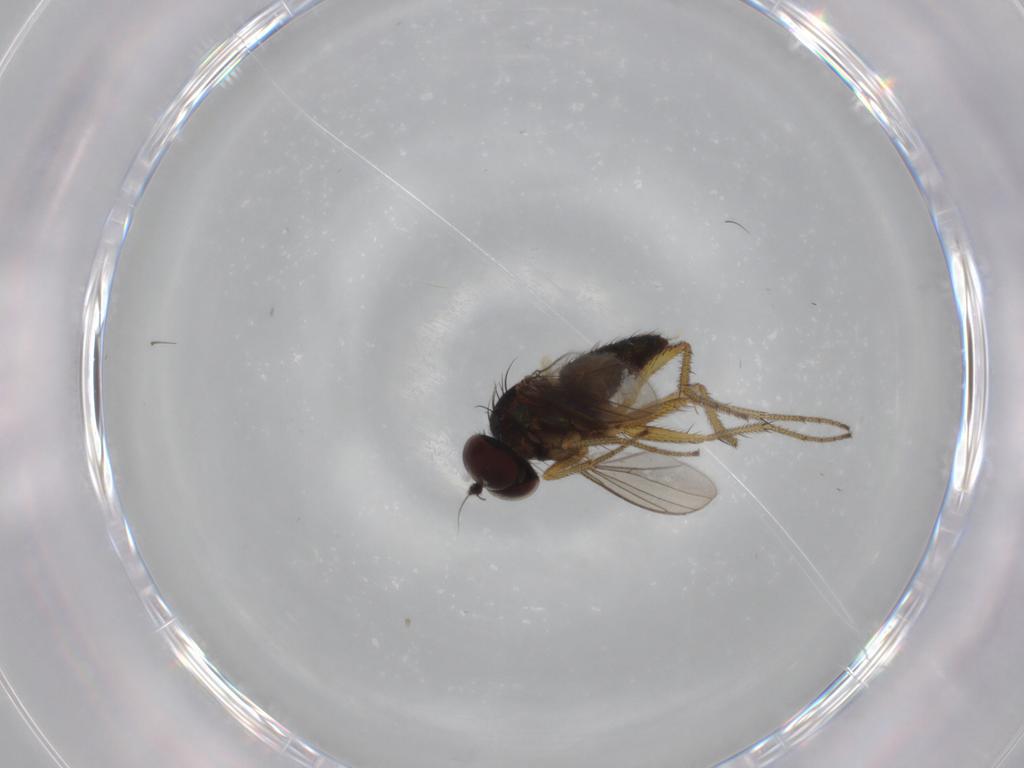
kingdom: Animalia
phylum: Arthropoda
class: Insecta
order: Diptera
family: Dolichopodidae
